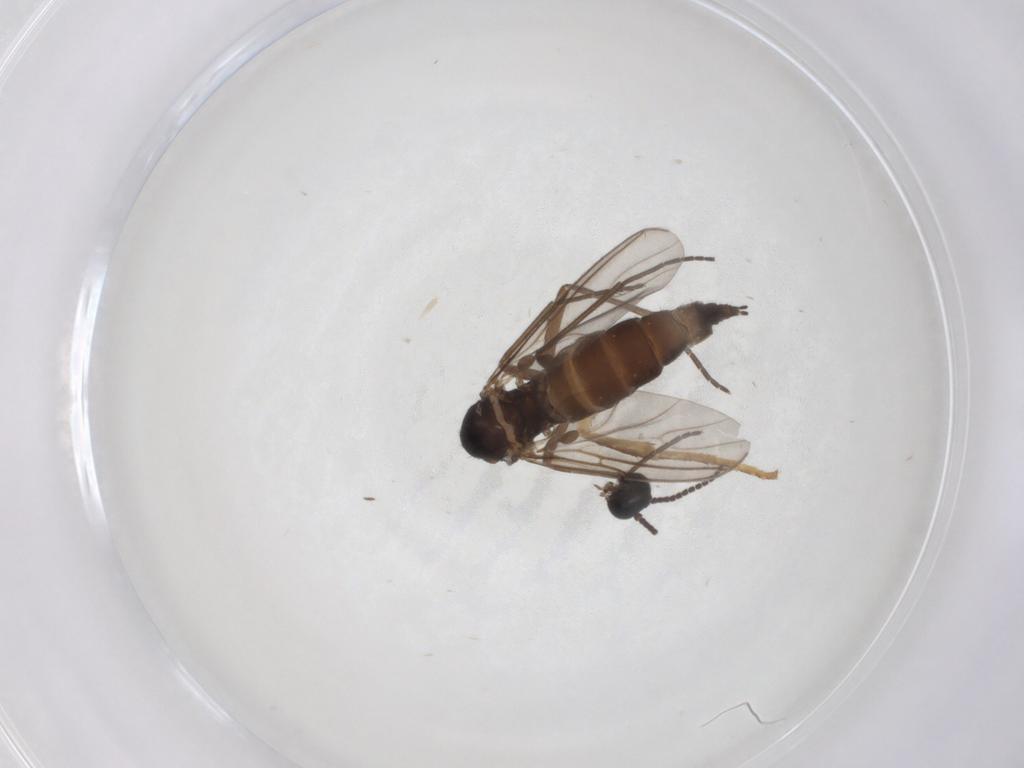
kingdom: Animalia
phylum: Arthropoda
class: Insecta
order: Diptera
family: Sciaridae
